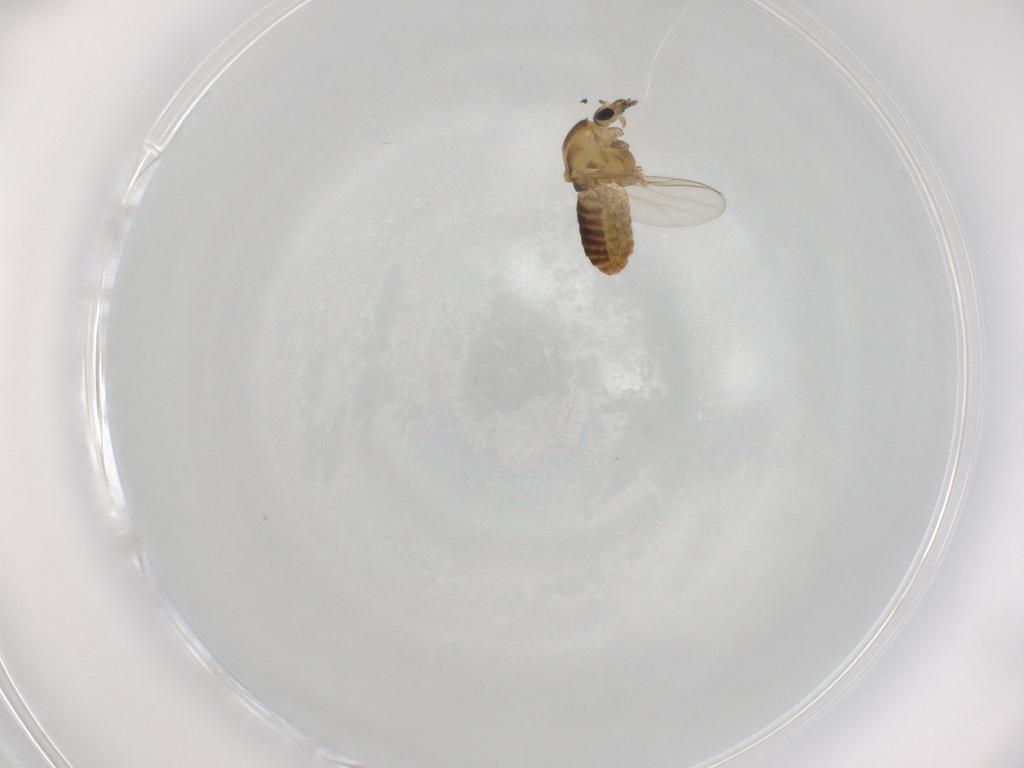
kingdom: Animalia
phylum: Arthropoda
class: Insecta
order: Diptera
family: Chironomidae
